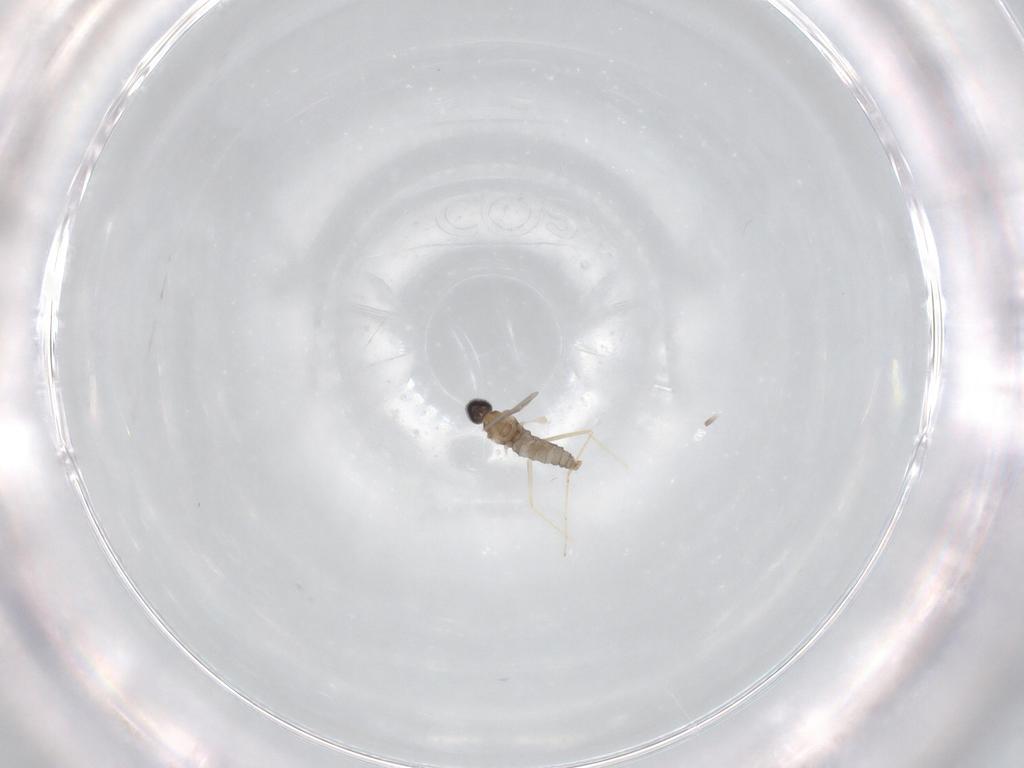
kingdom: Animalia
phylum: Arthropoda
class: Insecta
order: Diptera
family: Cecidomyiidae
